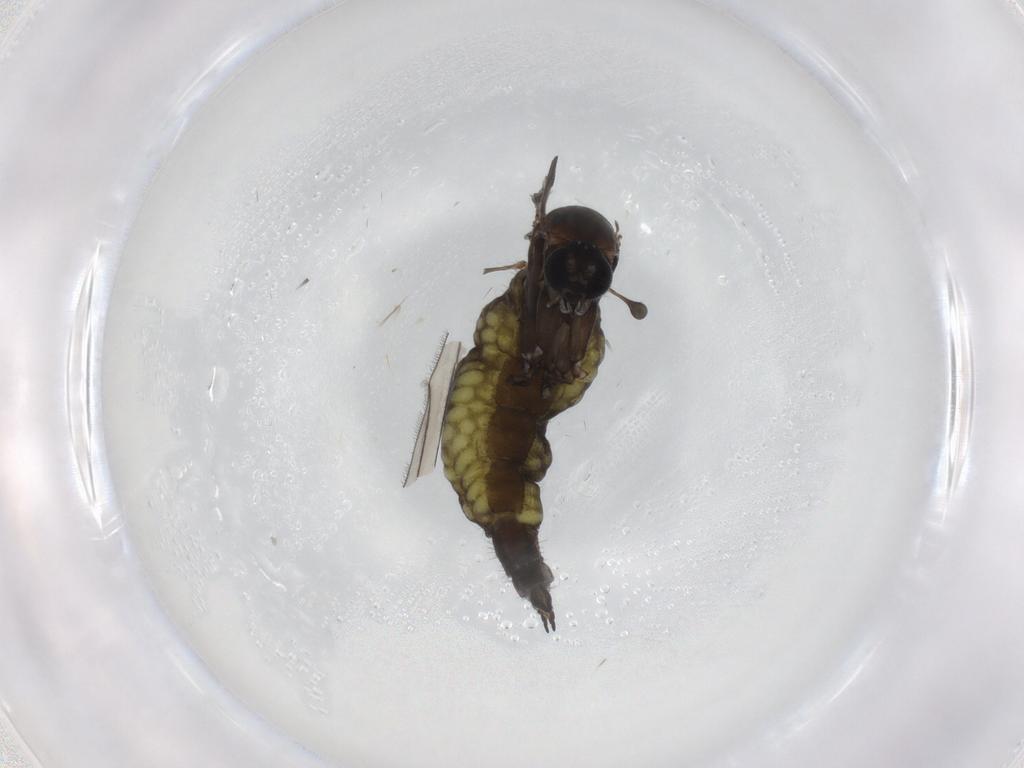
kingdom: Animalia
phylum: Arthropoda
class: Insecta
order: Diptera
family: Sciaridae
